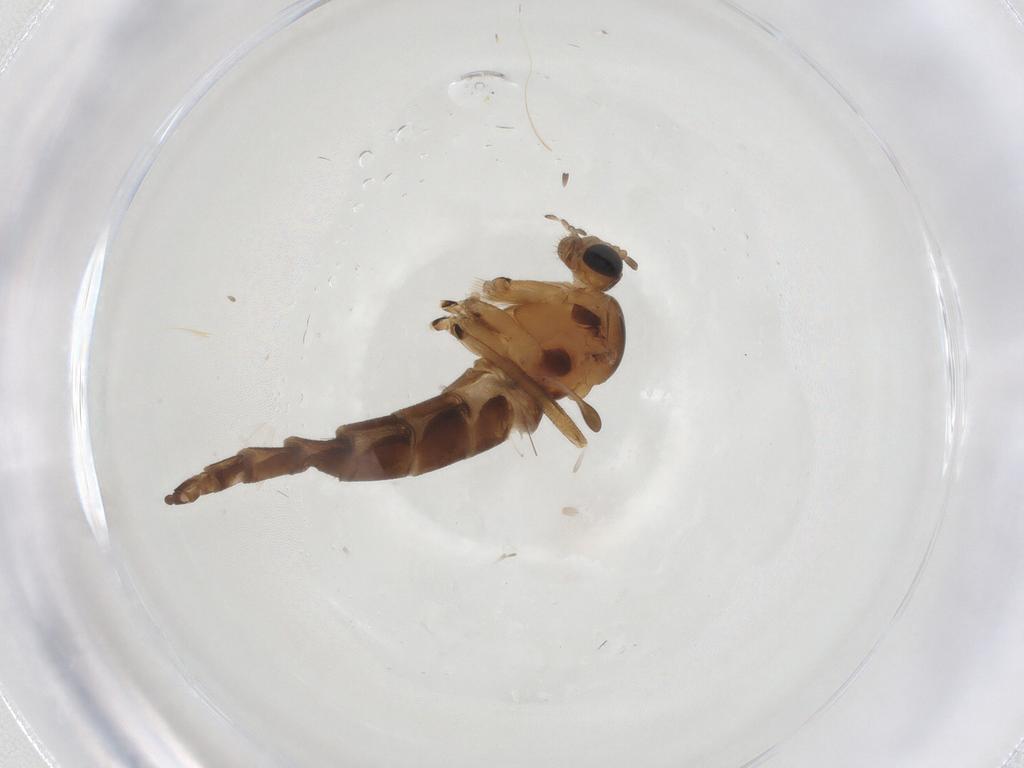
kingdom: Animalia
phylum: Arthropoda
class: Insecta
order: Diptera
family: Sciaridae
